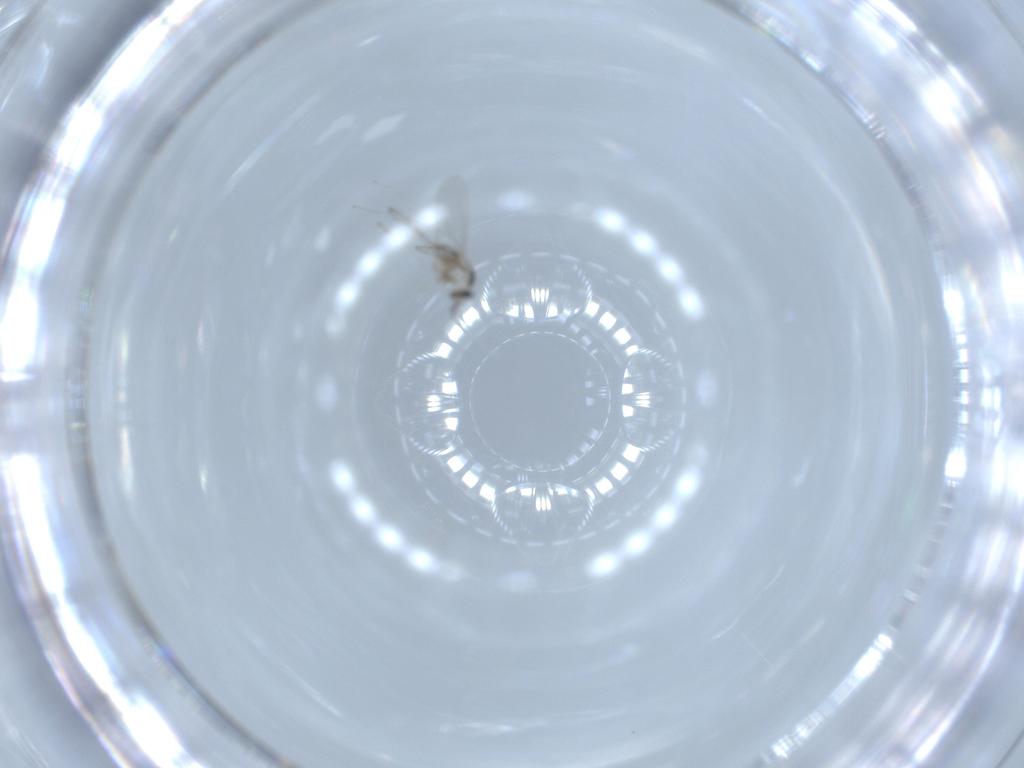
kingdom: Animalia
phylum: Arthropoda
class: Insecta
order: Diptera
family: Cecidomyiidae
